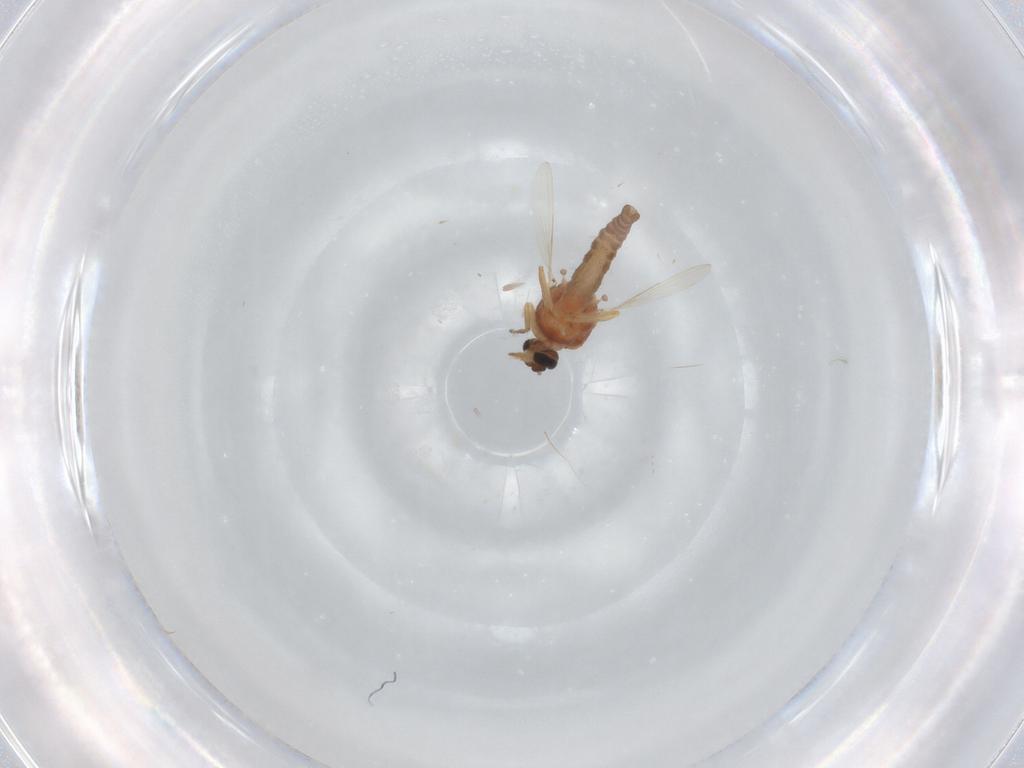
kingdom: Animalia
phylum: Arthropoda
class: Insecta
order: Diptera
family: Ceratopogonidae
